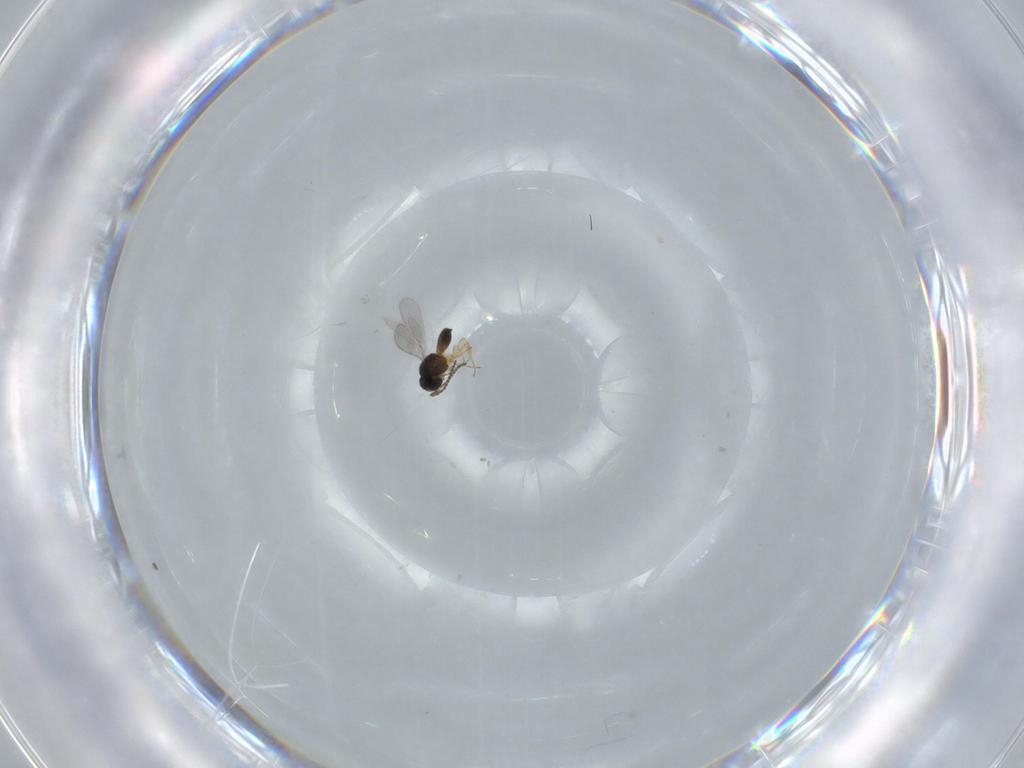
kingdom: Animalia
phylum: Arthropoda
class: Insecta
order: Hymenoptera
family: Scelionidae
